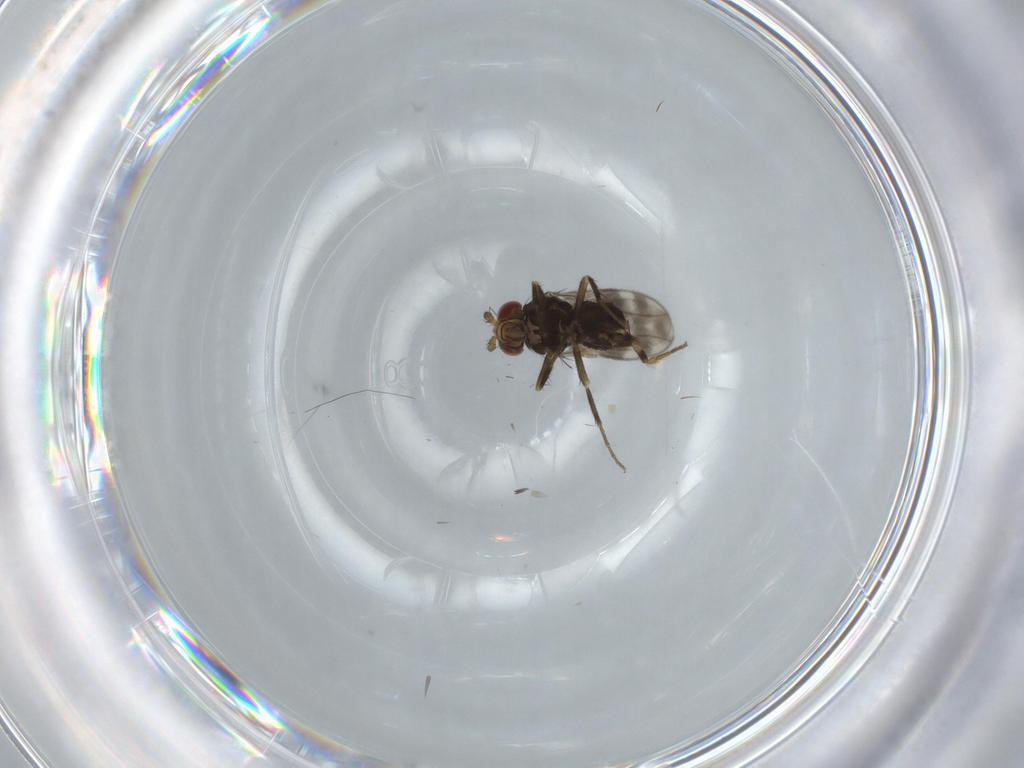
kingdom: Animalia
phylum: Arthropoda
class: Insecta
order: Diptera
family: Sphaeroceridae
